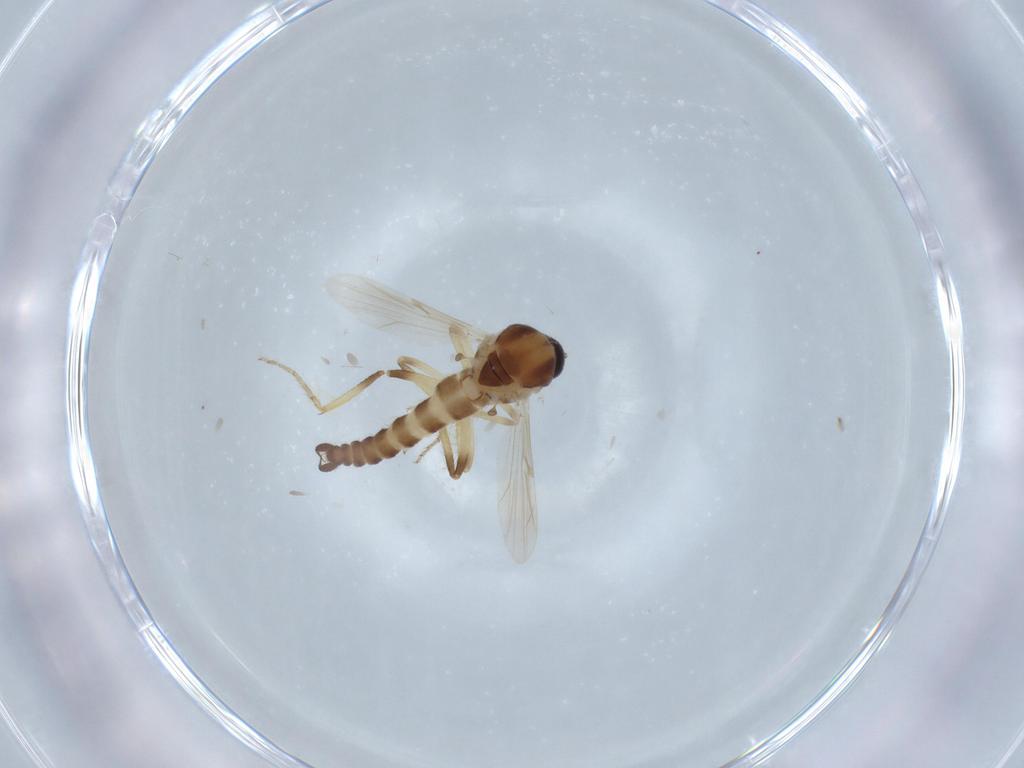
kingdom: Animalia
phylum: Arthropoda
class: Insecta
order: Diptera
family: Ceratopogonidae
